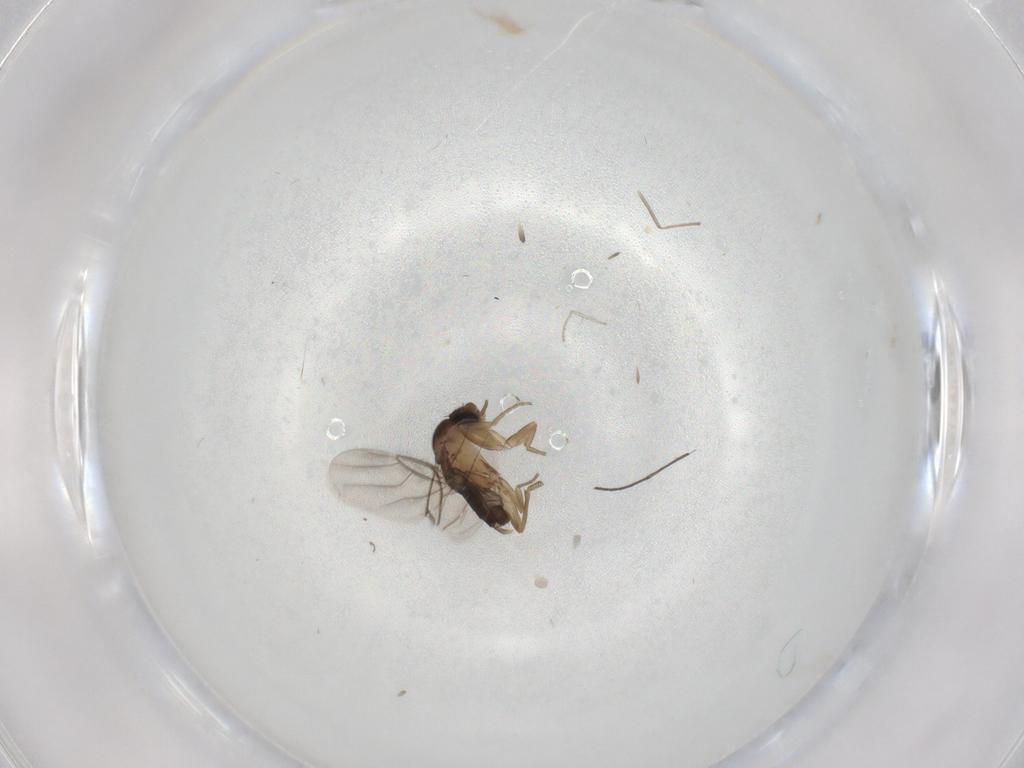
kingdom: Animalia
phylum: Arthropoda
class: Insecta
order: Diptera
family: Phoridae
